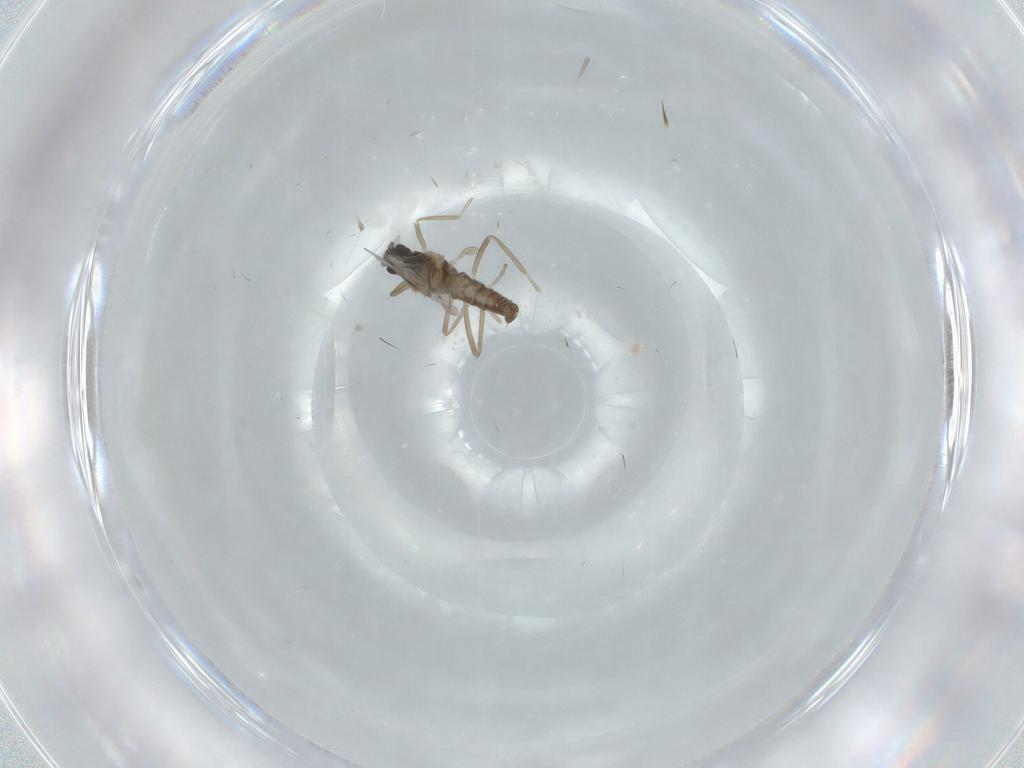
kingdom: Animalia
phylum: Arthropoda
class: Insecta
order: Diptera
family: Cecidomyiidae
